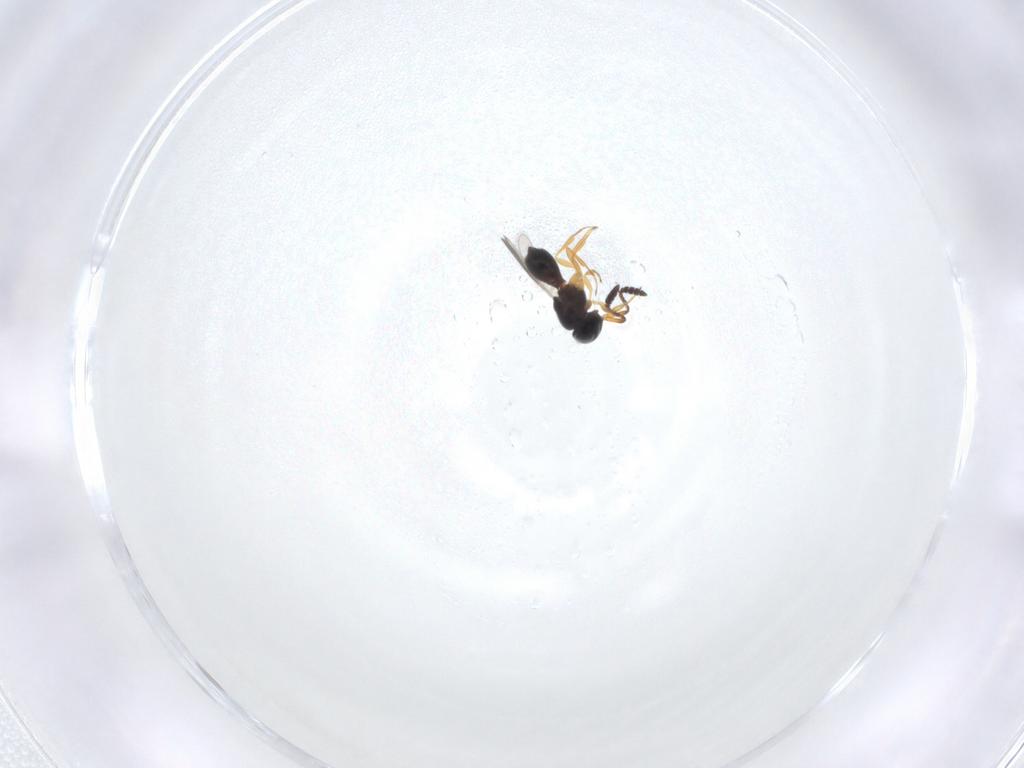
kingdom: Animalia
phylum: Arthropoda
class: Insecta
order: Hymenoptera
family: Scelionidae
